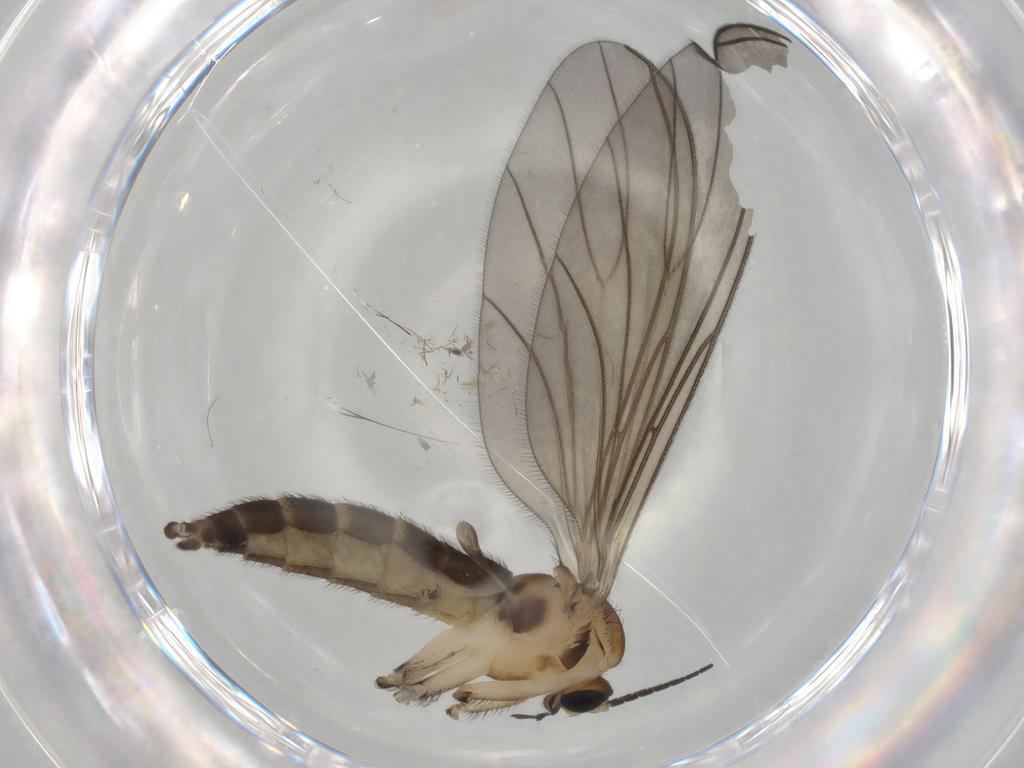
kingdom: Animalia
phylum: Arthropoda
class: Insecta
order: Diptera
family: Sciaridae
